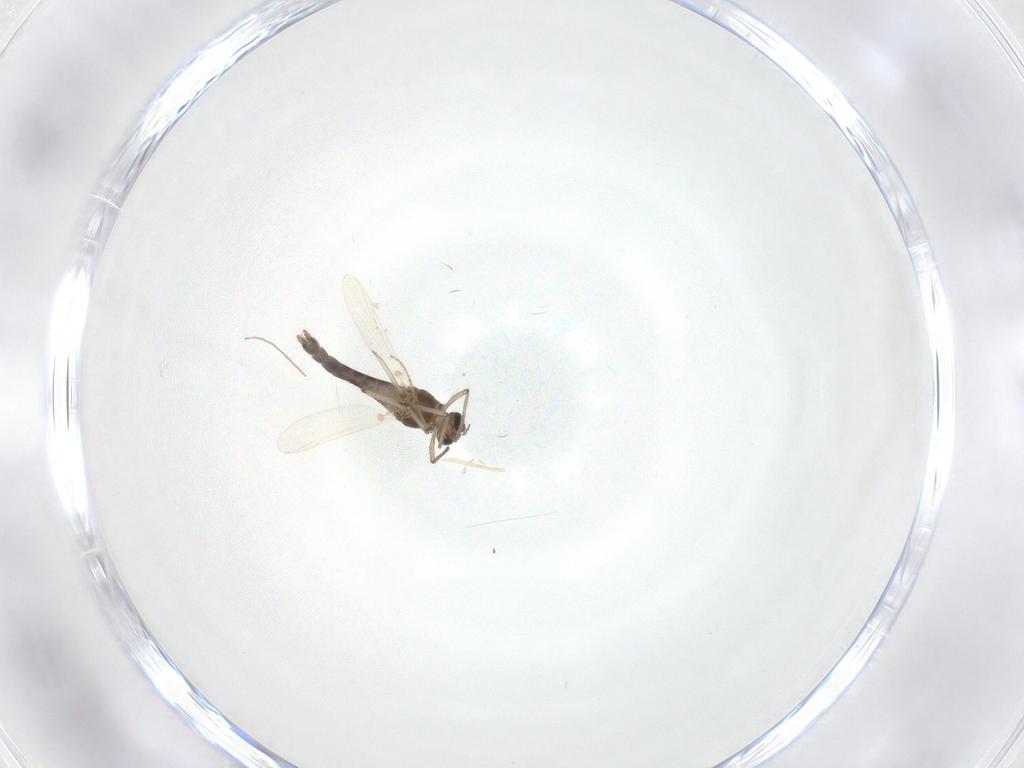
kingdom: Animalia
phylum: Arthropoda
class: Insecta
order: Diptera
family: Chironomidae
